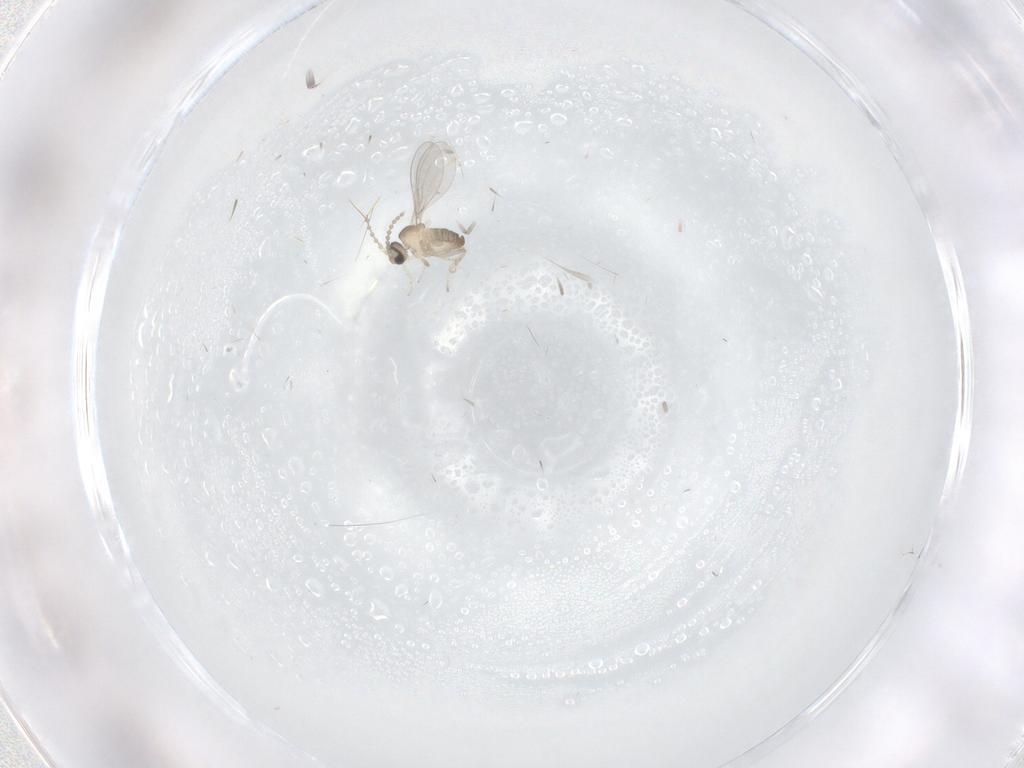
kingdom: Animalia
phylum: Arthropoda
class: Insecta
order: Diptera
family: Cecidomyiidae
